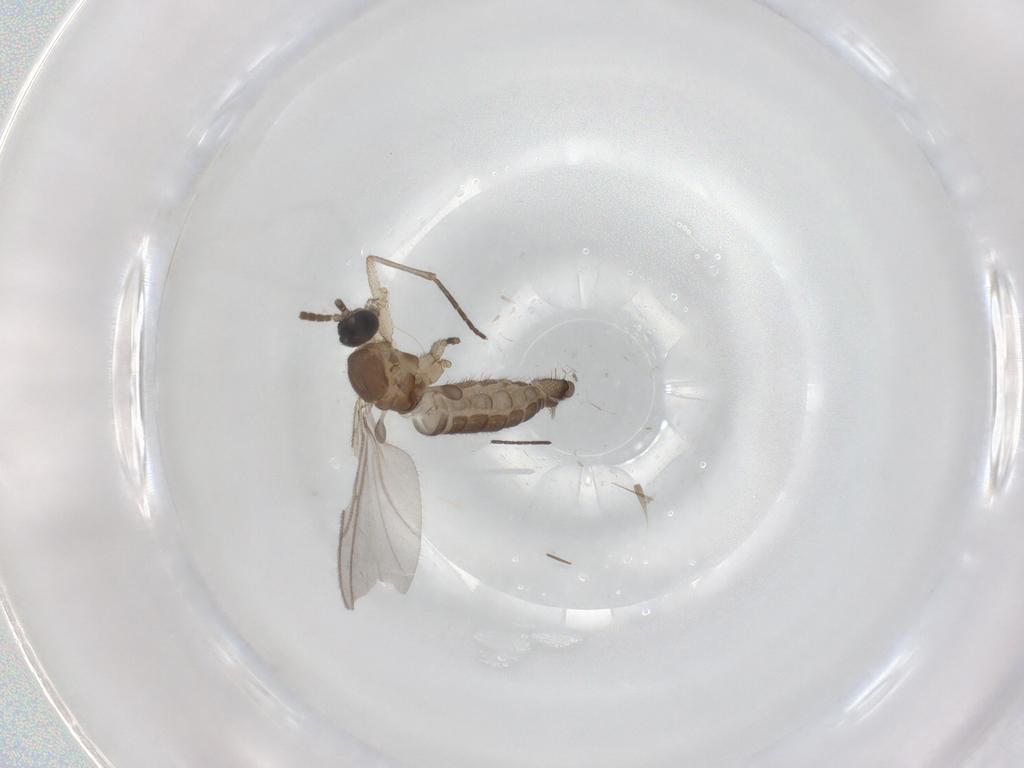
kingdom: Animalia
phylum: Arthropoda
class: Insecta
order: Diptera
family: Sciaridae
